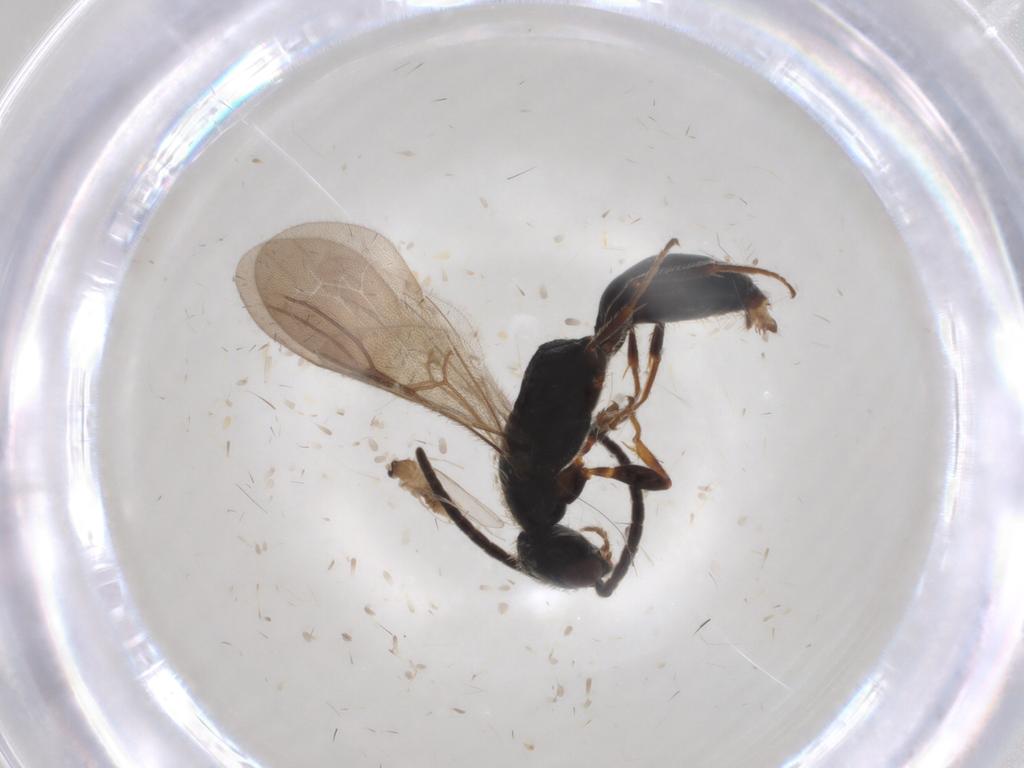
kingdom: Animalia
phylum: Arthropoda
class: Insecta
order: Hymenoptera
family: Bethylidae
